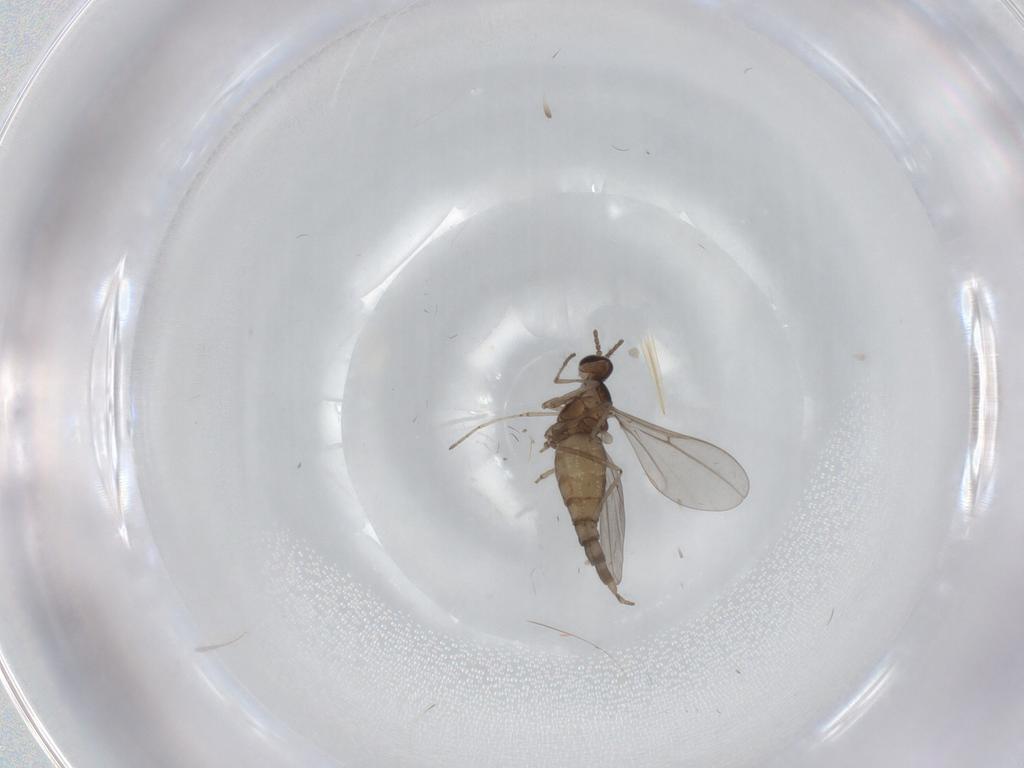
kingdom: Animalia
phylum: Arthropoda
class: Insecta
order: Diptera
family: Cecidomyiidae
